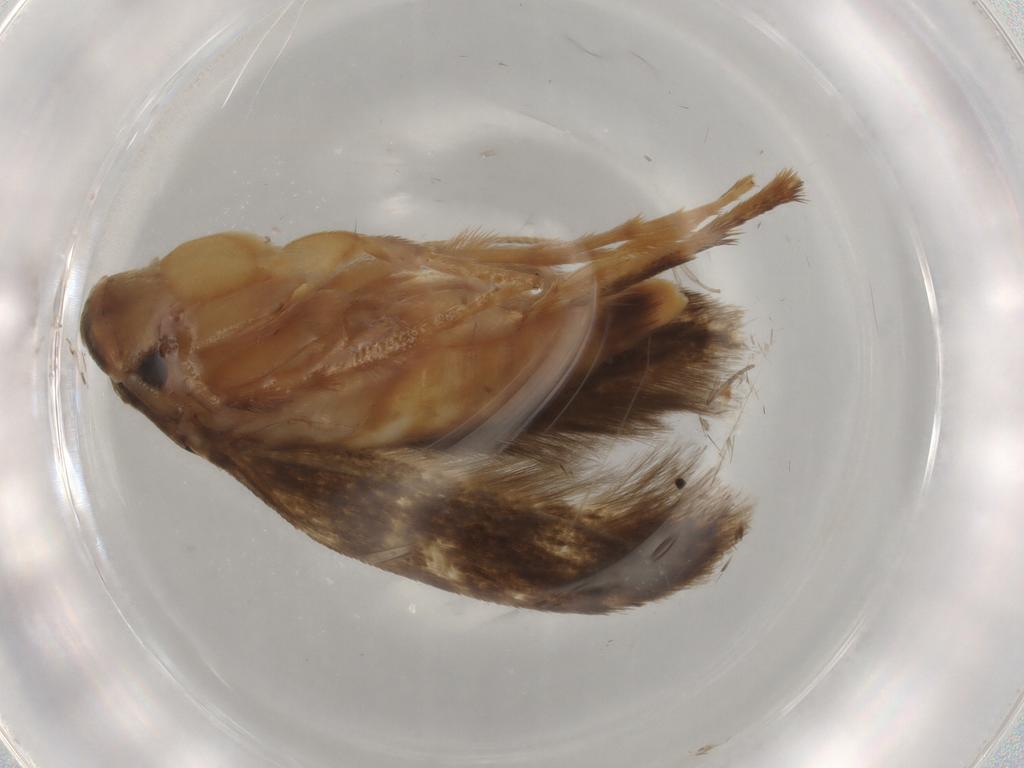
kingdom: Animalia
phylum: Arthropoda
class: Insecta
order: Lepidoptera
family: Tineidae
